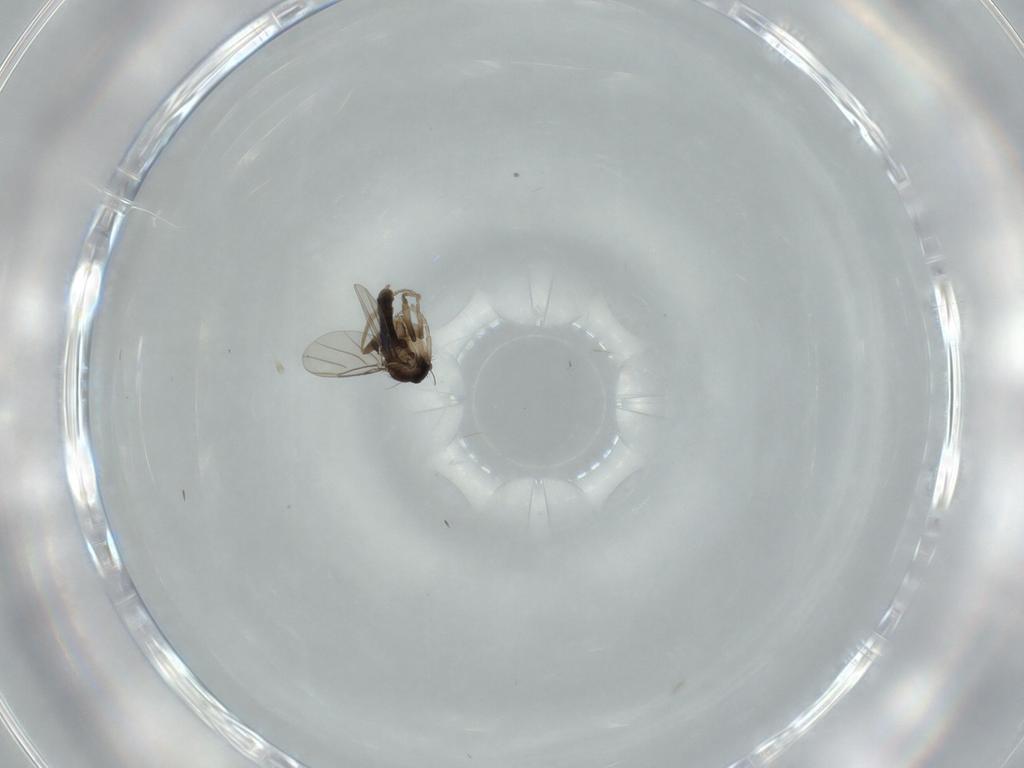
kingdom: Animalia
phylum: Arthropoda
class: Insecta
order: Diptera
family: Phoridae
